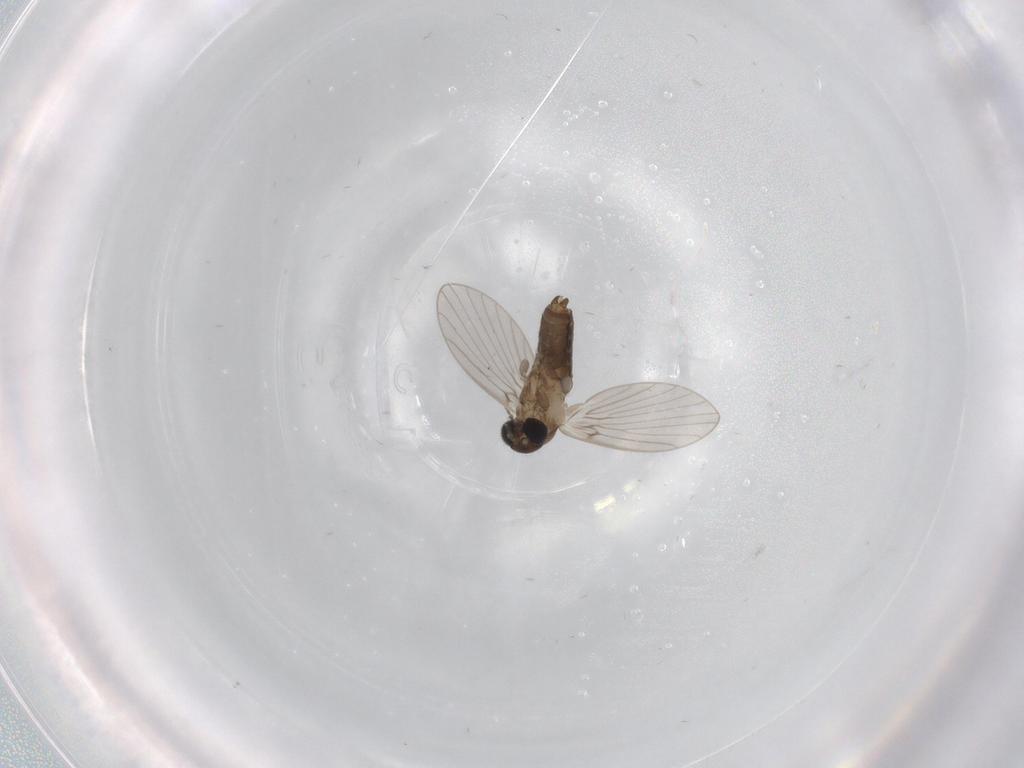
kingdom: Animalia
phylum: Arthropoda
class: Insecta
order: Diptera
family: Psychodidae
